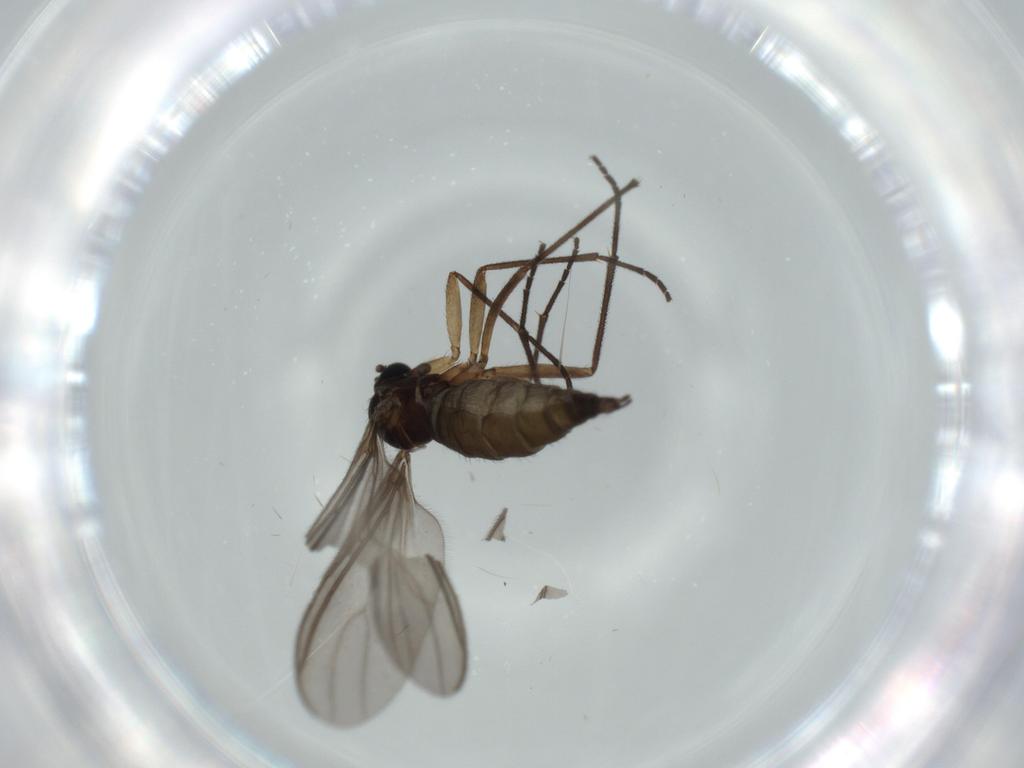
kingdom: Animalia
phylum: Arthropoda
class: Insecta
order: Diptera
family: Sciaridae
